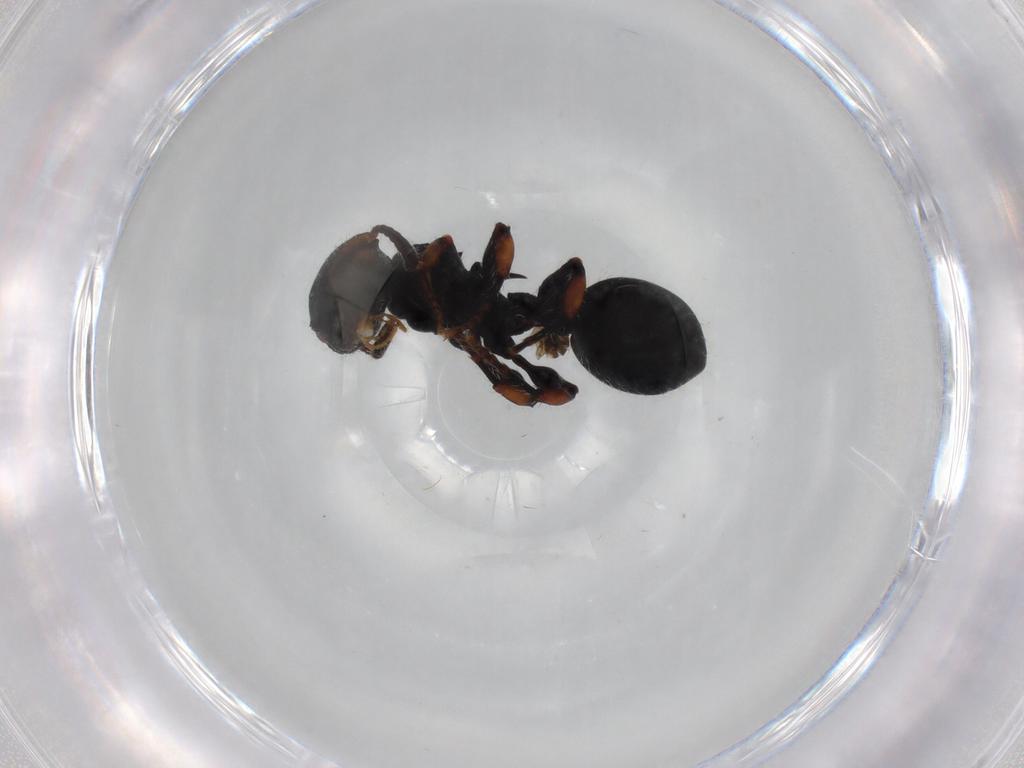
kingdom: Animalia
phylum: Arthropoda
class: Insecta
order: Hymenoptera
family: Formicidae
